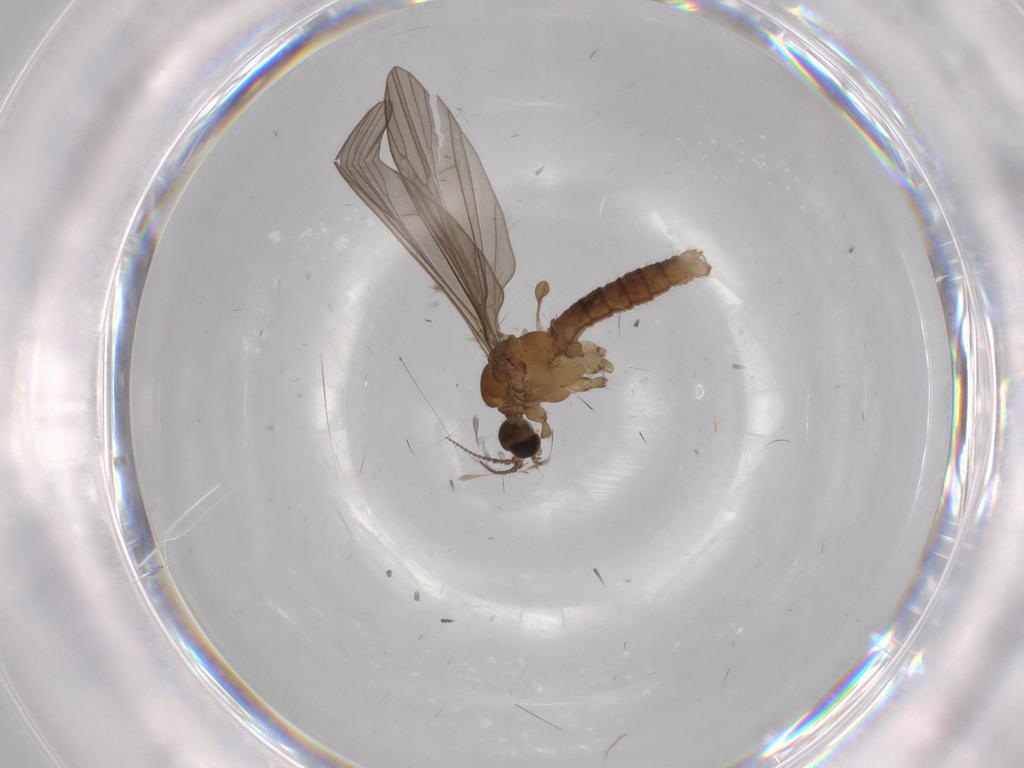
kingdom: Animalia
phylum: Arthropoda
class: Insecta
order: Diptera
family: Limoniidae
